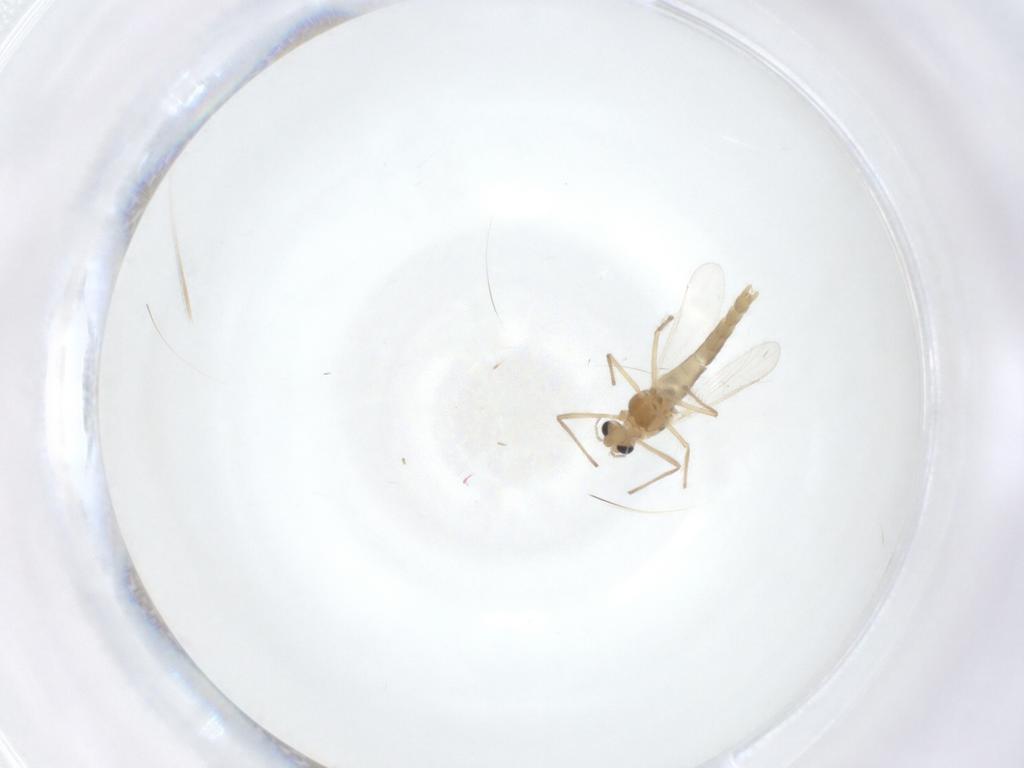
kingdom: Animalia
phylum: Arthropoda
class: Insecta
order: Diptera
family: Chironomidae
